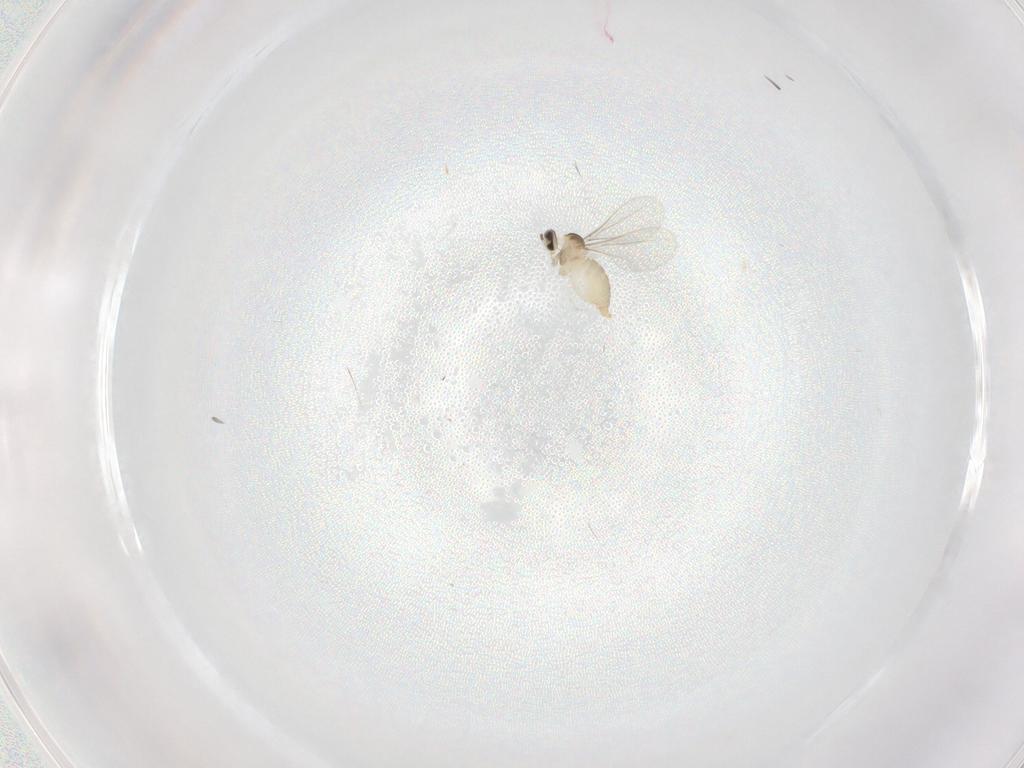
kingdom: Animalia
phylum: Arthropoda
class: Insecta
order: Diptera
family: Cecidomyiidae
